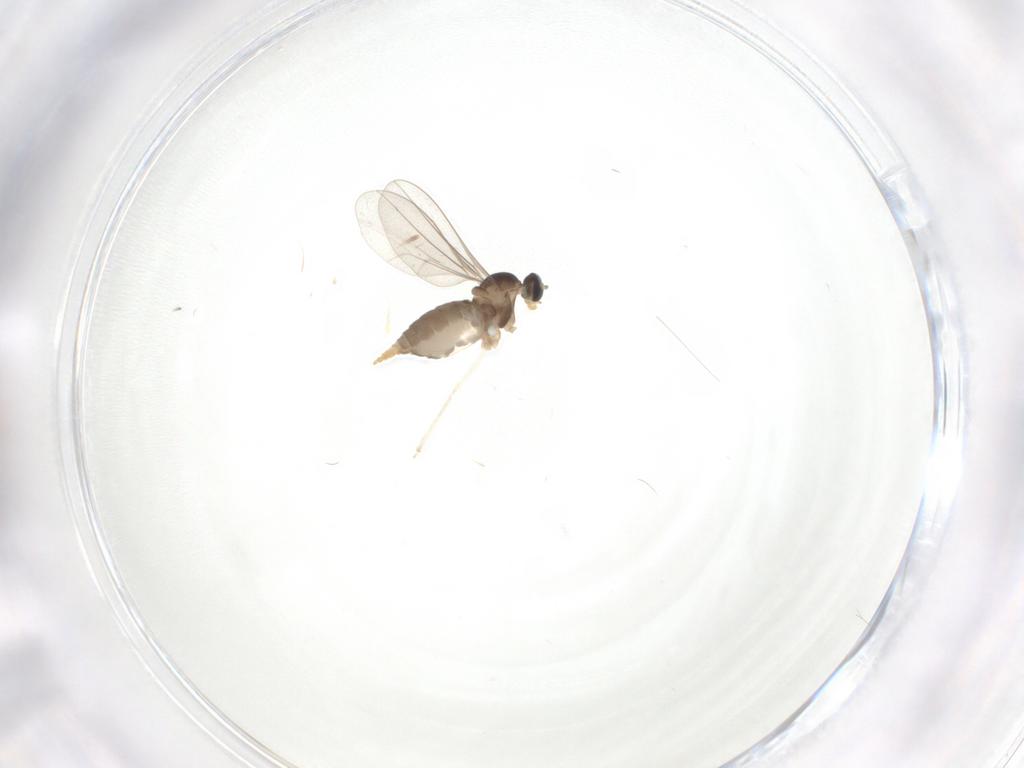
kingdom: Animalia
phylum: Arthropoda
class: Insecta
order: Diptera
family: Cecidomyiidae
